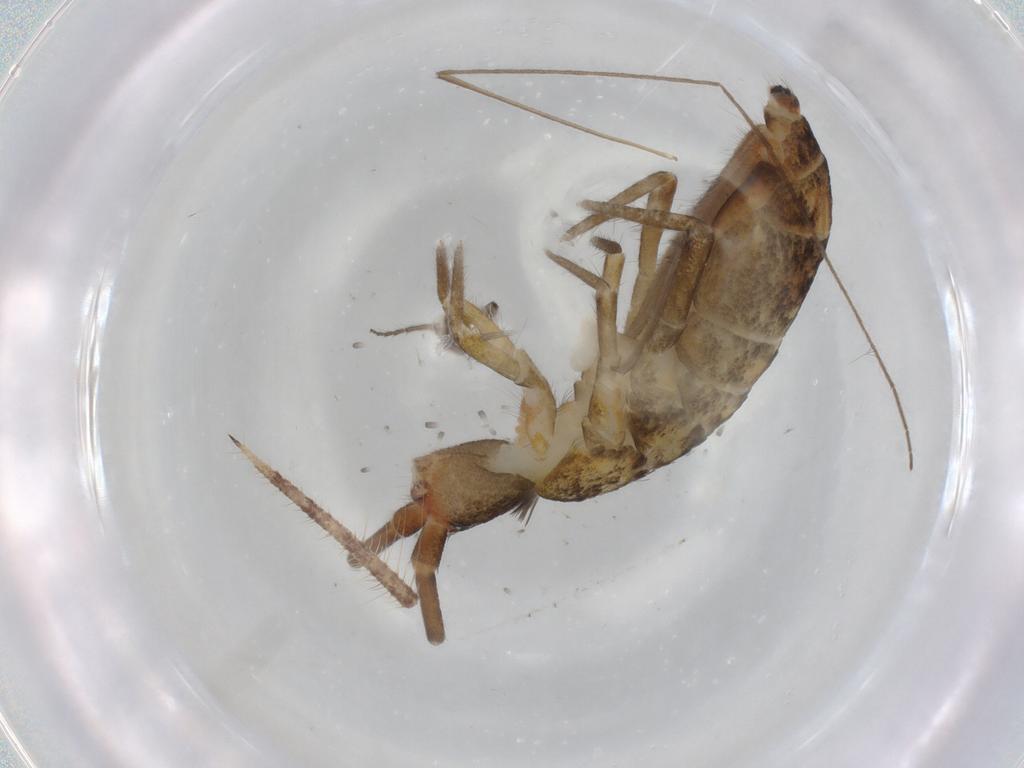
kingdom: Animalia
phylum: Arthropoda
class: Collembola
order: Entomobryomorpha
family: Tomoceridae
